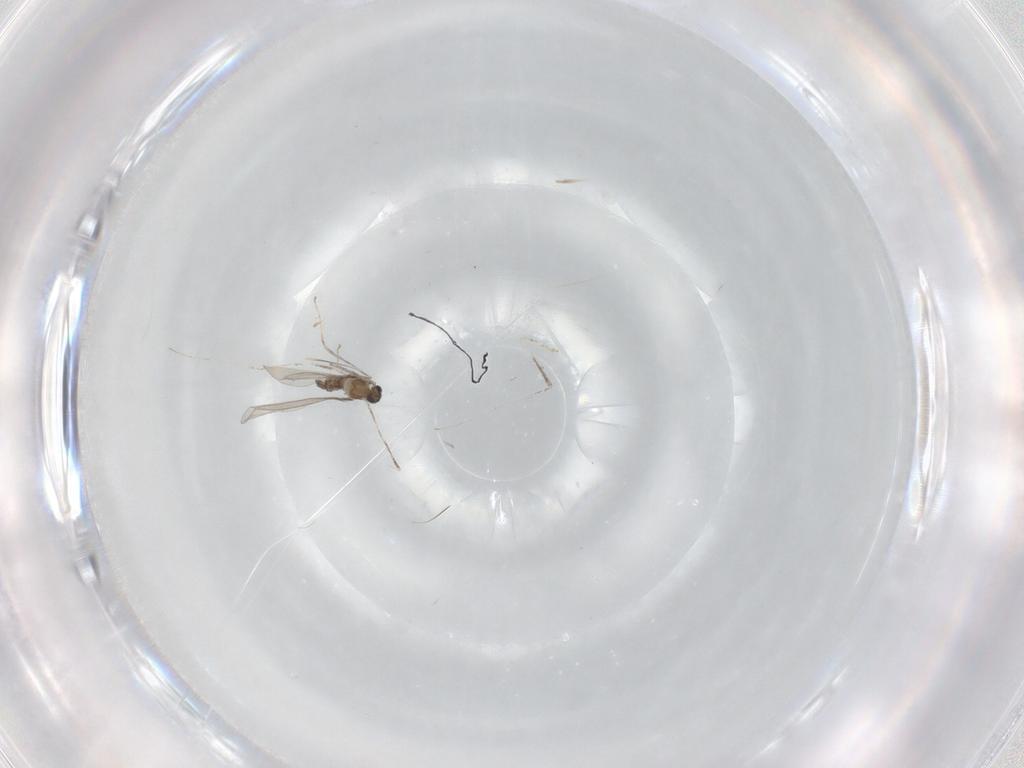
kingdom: Animalia
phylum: Arthropoda
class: Insecta
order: Diptera
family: Cecidomyiidae
